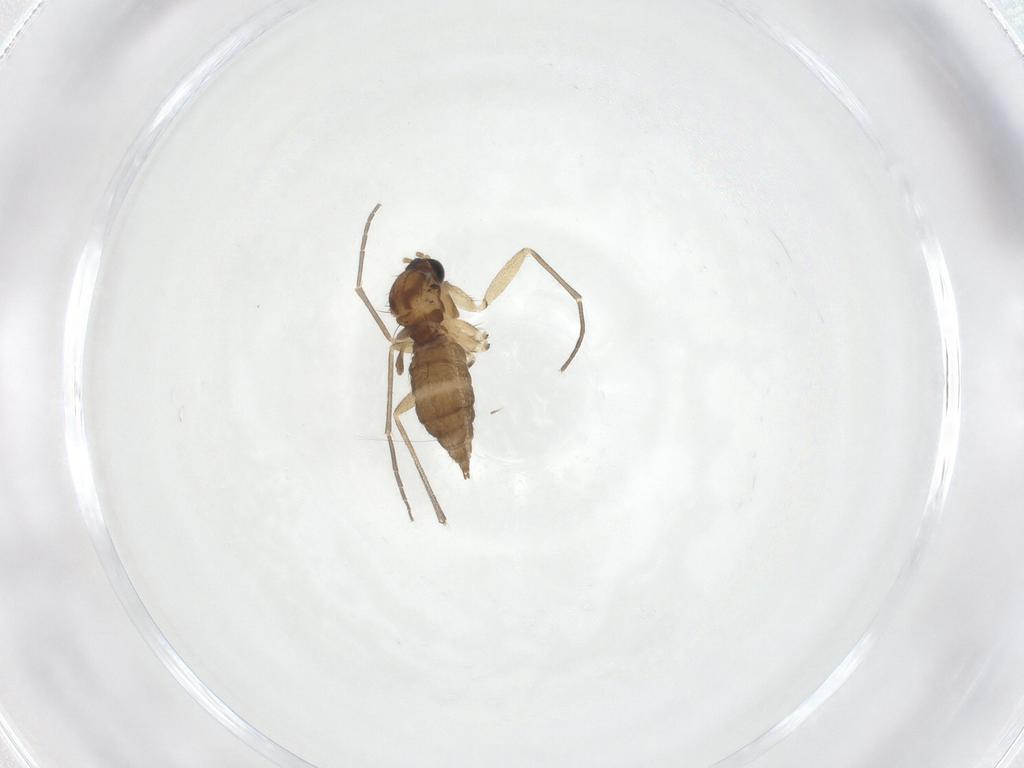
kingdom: Animalia
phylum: Arthropoda
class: Insecta
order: Diptera
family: Sciaridae
